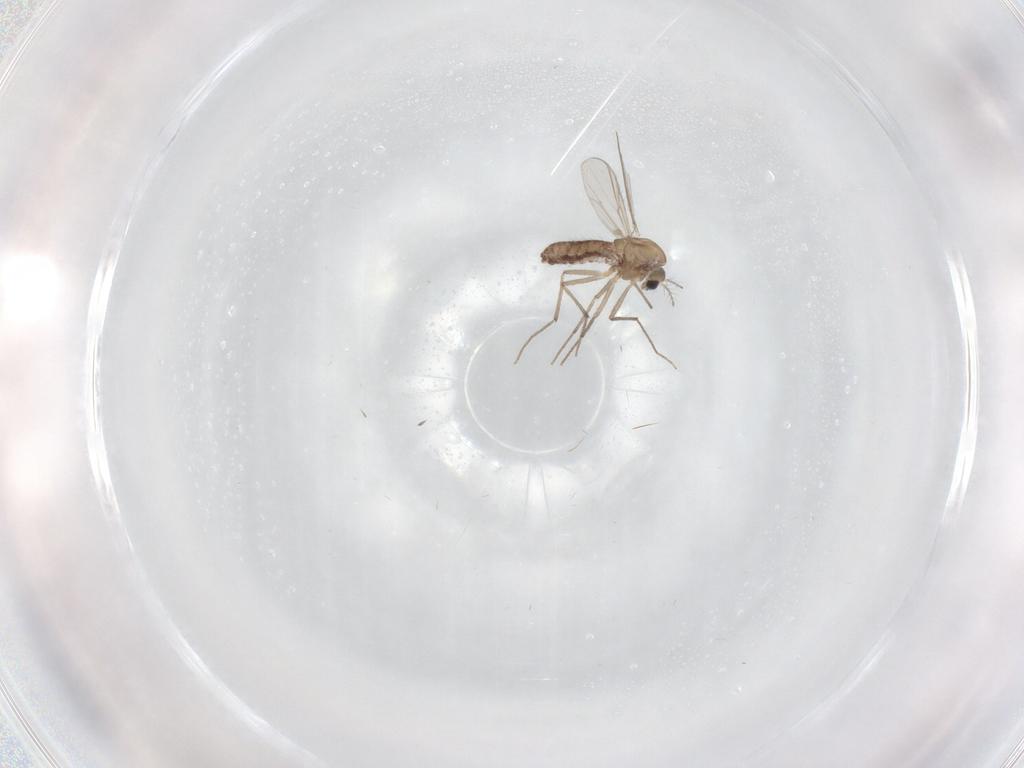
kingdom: Animalia
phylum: Arthropoda
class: Insecta
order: Diptera
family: Chironomidae
